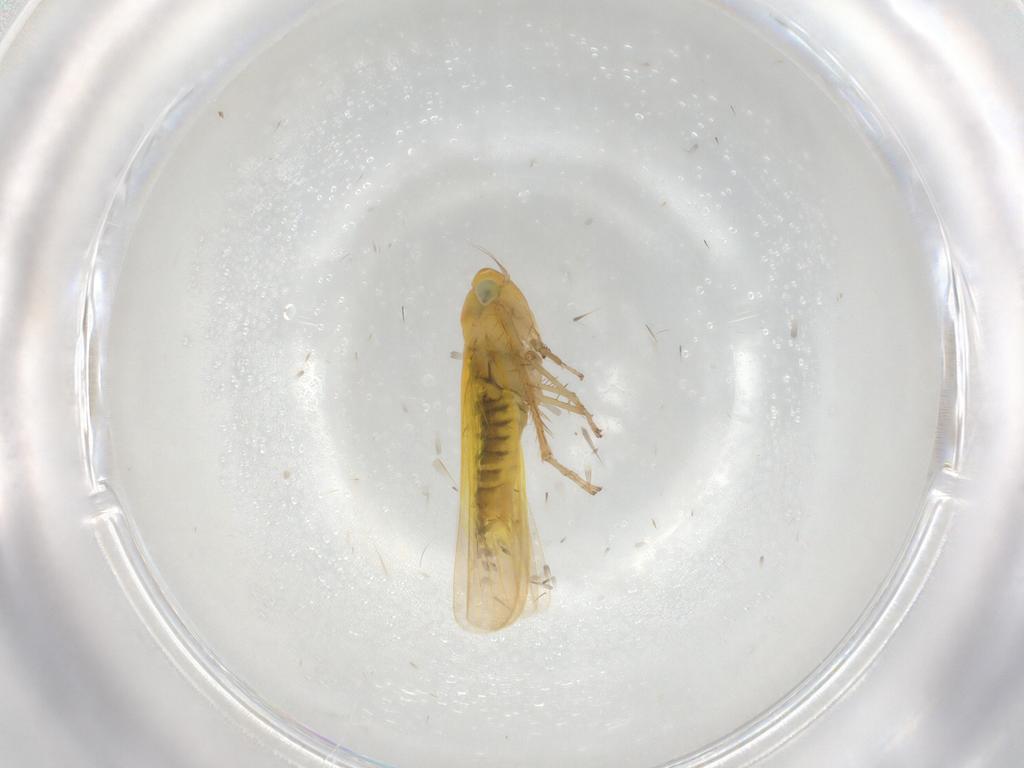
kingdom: Animalia
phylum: Arthropoda
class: Insecta
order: Hemiptera
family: Cicadellidae
